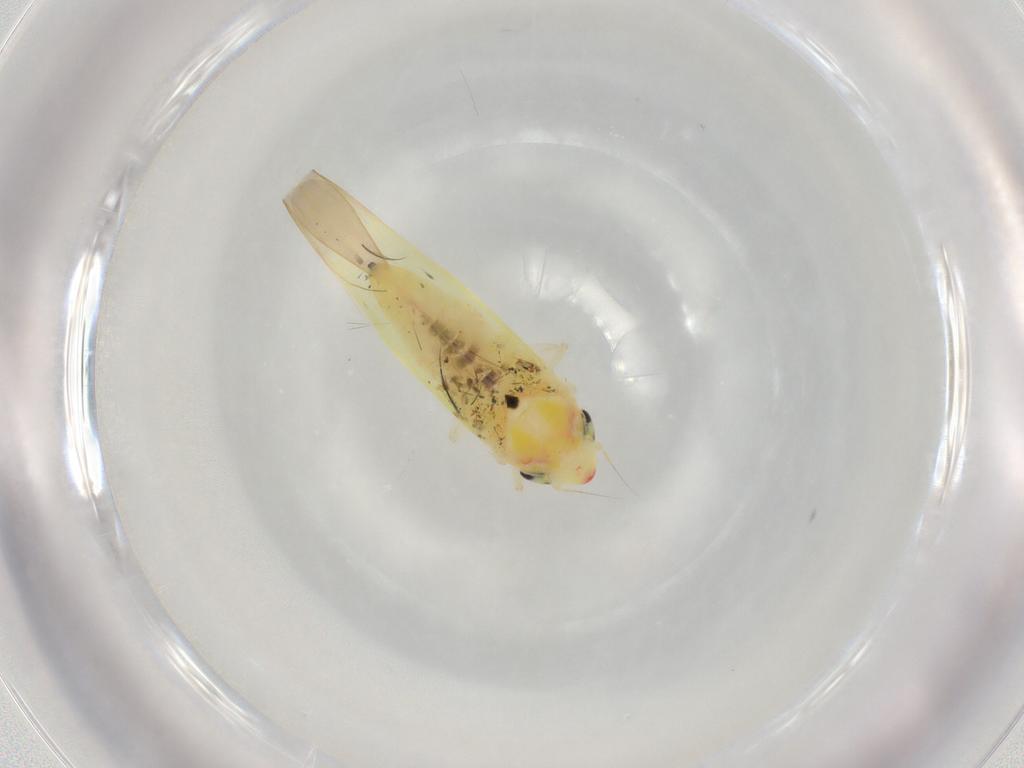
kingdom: Animalia
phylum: Arthropoda
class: Insecta
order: Hemiptera
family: Cicadellidae
